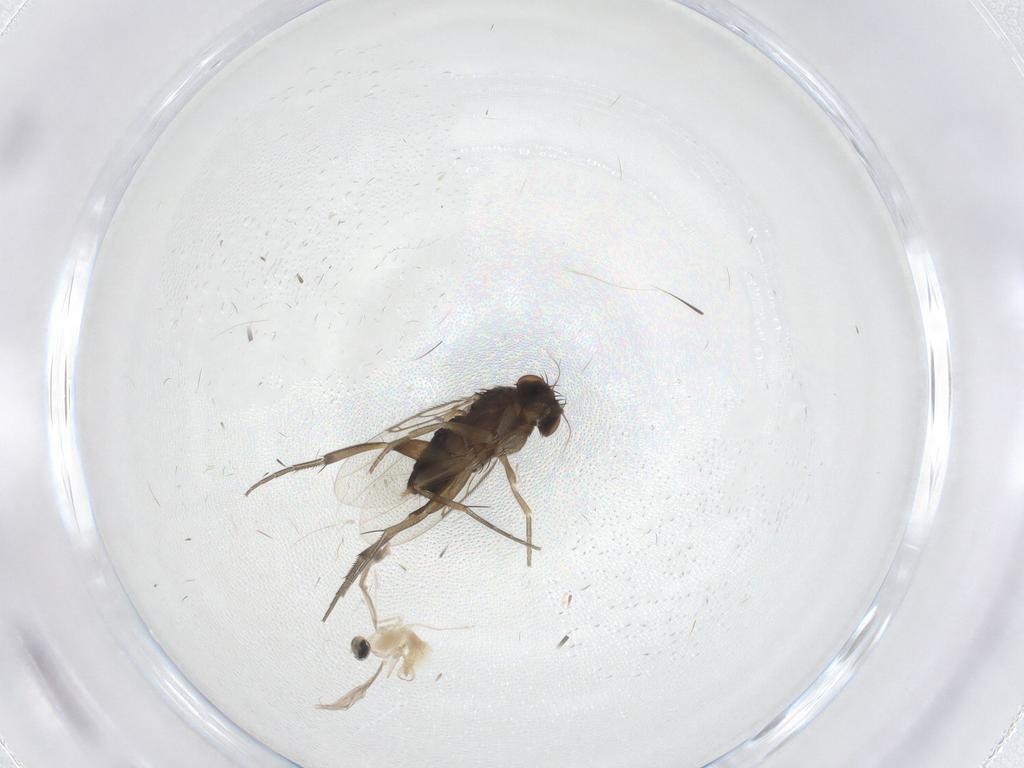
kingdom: Animalia
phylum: Arthropoda
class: Insecta
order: Diptera
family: Phoridae
